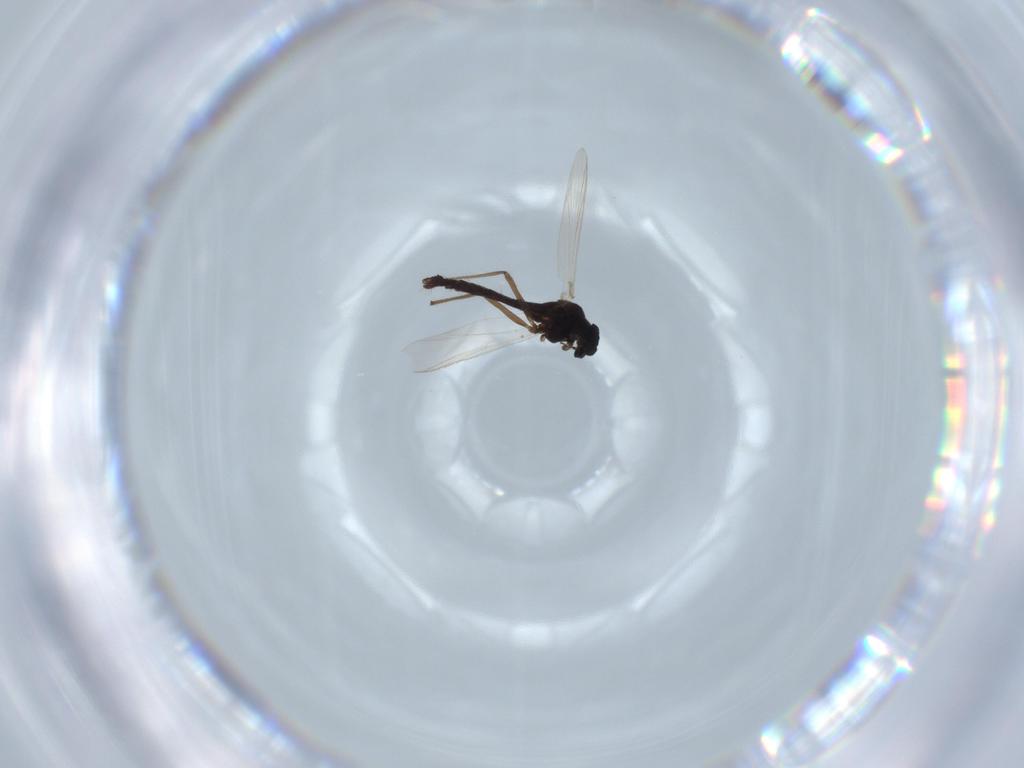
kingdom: Animalia
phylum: Arthropoda
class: Insecta
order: Diptera
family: Chironomidae
